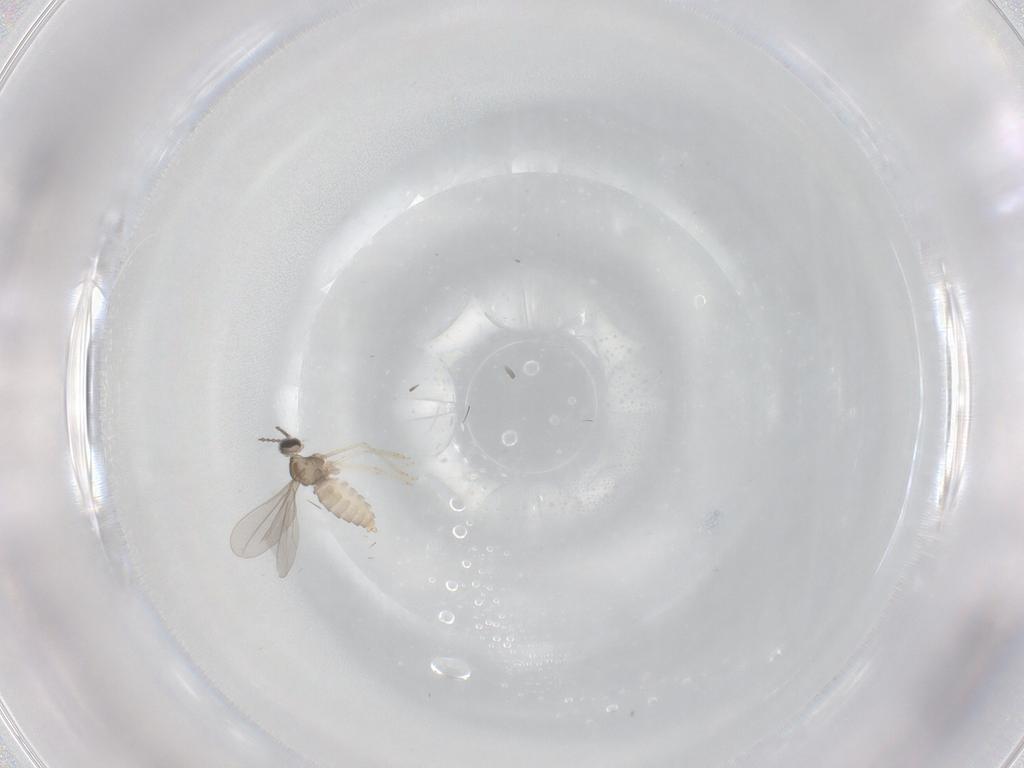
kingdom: Animalia
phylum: Arthropoda
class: Insecta
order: Diptera
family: Chironomidae
